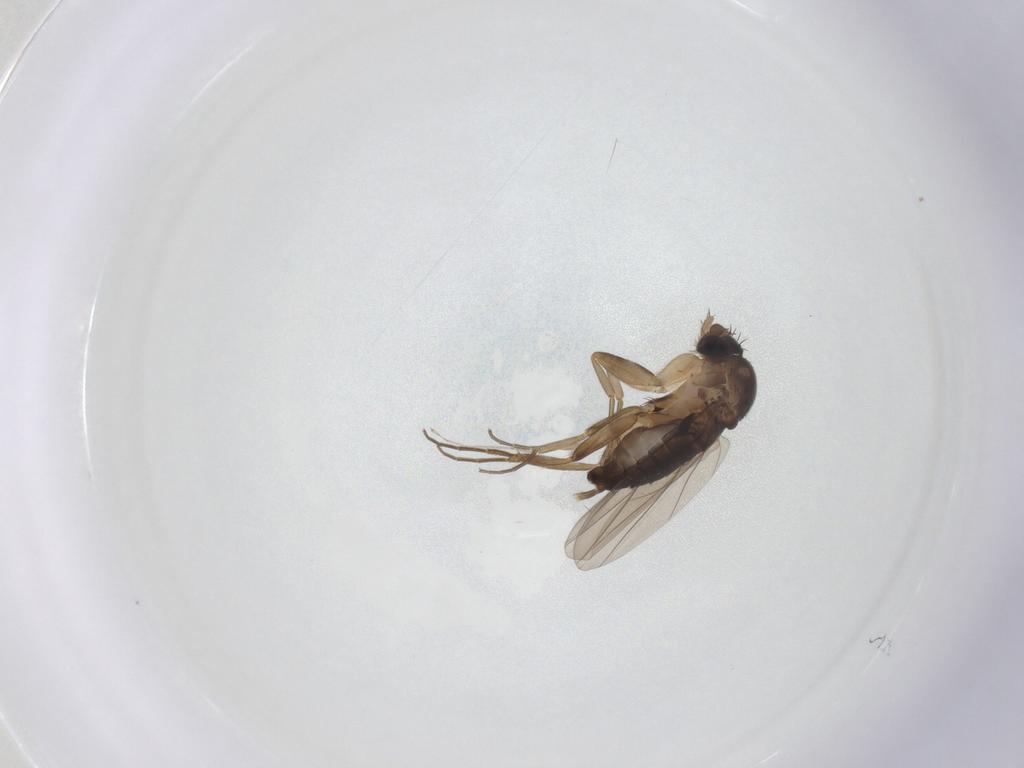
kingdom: Animalia
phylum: Arthropoda
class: Insecta
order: Diptera
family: Phoridae
